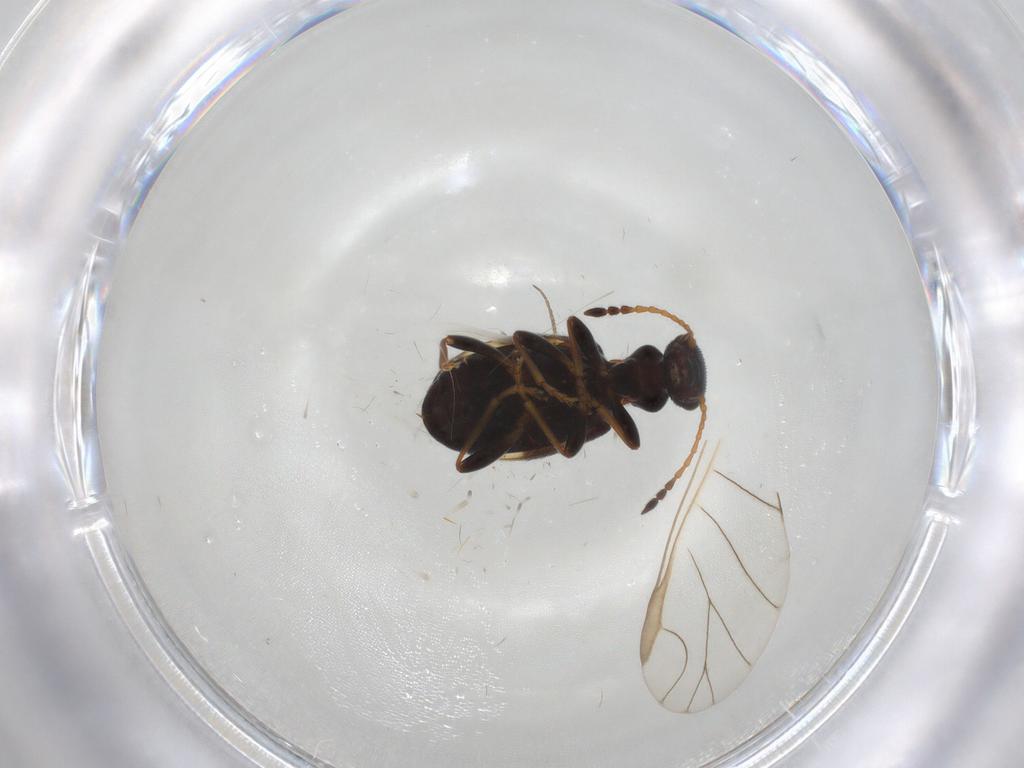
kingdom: Animalia
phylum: Arthropoda
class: Insecta
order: Coleoptera
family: Anthicidae
